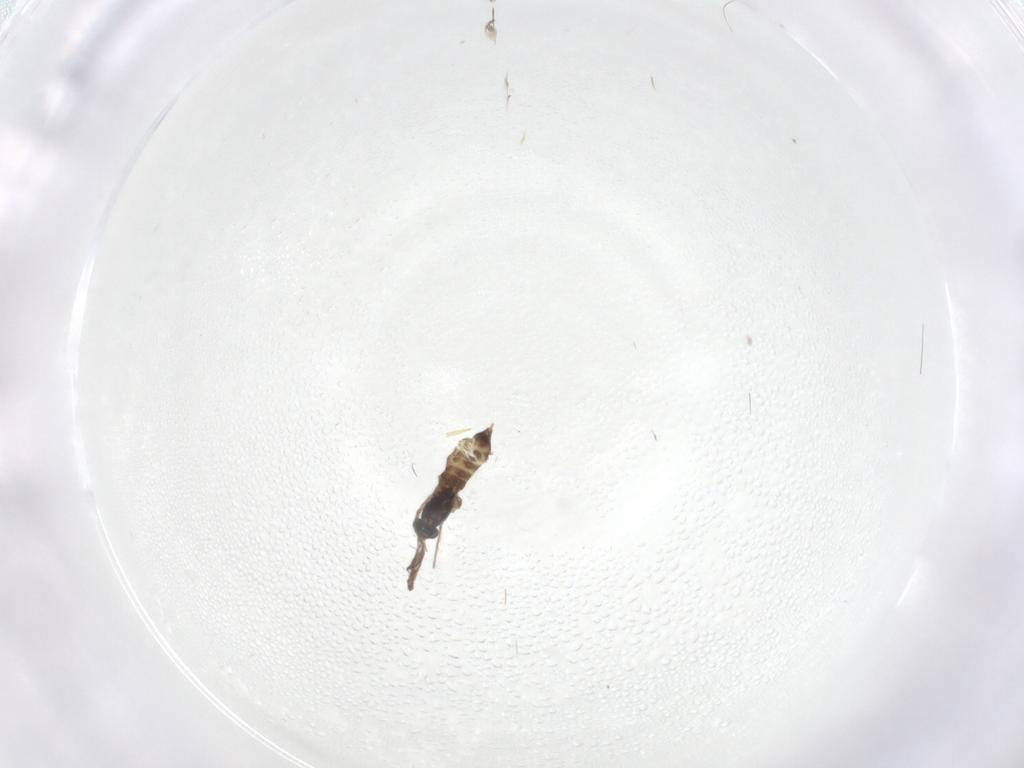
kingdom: Animalia
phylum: Arthropoda
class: Insecta
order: Diptera
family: Chironomidae
